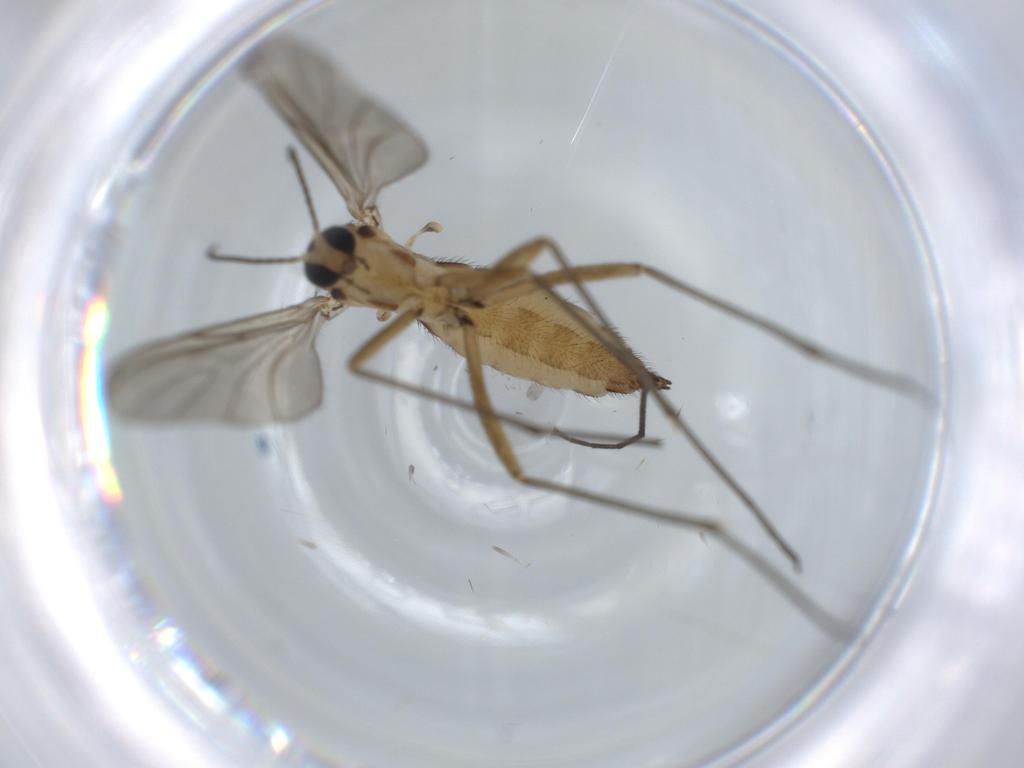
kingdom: Animalia
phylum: Arthropoda
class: Insecta
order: Diptera
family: Sciaridae
